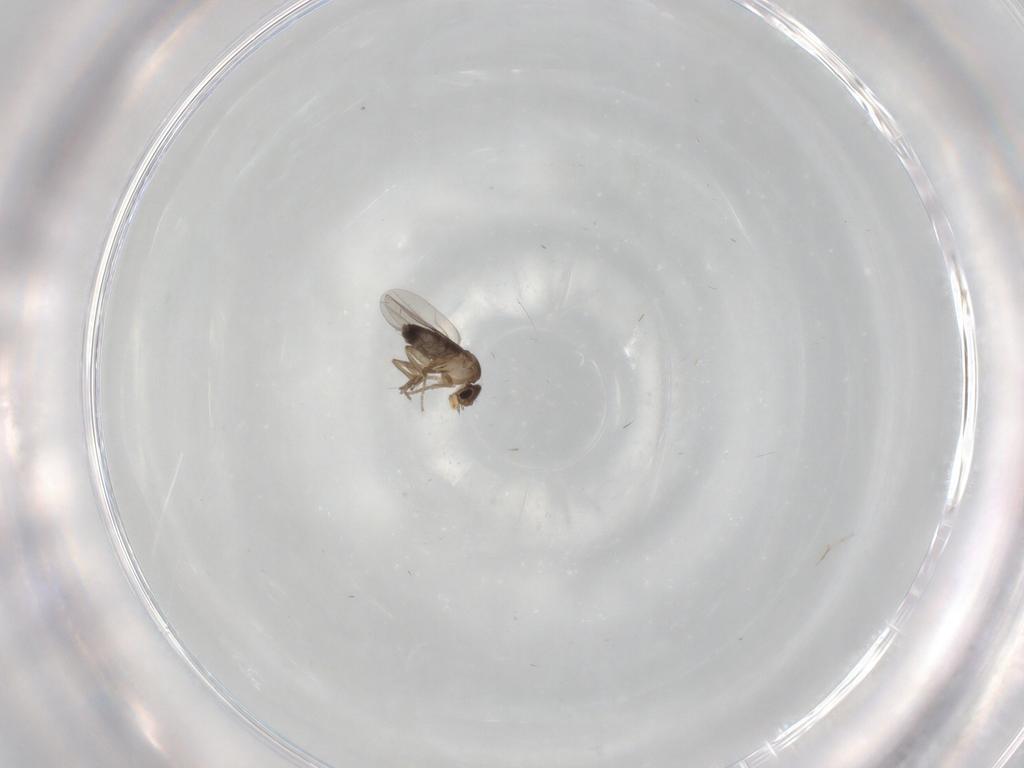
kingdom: Animalia
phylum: Arthropoda
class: Insecta
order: Diptera
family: Phoridae
